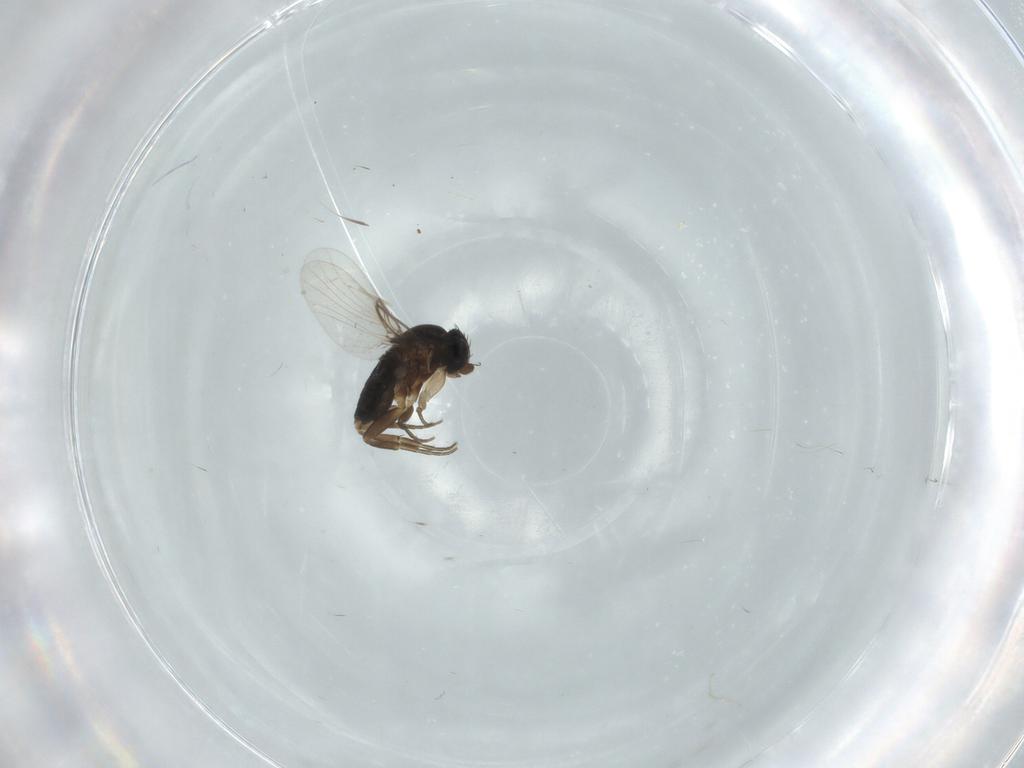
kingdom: Animalia
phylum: Arthropoda
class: Insecta
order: Diptera
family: Phoridae
